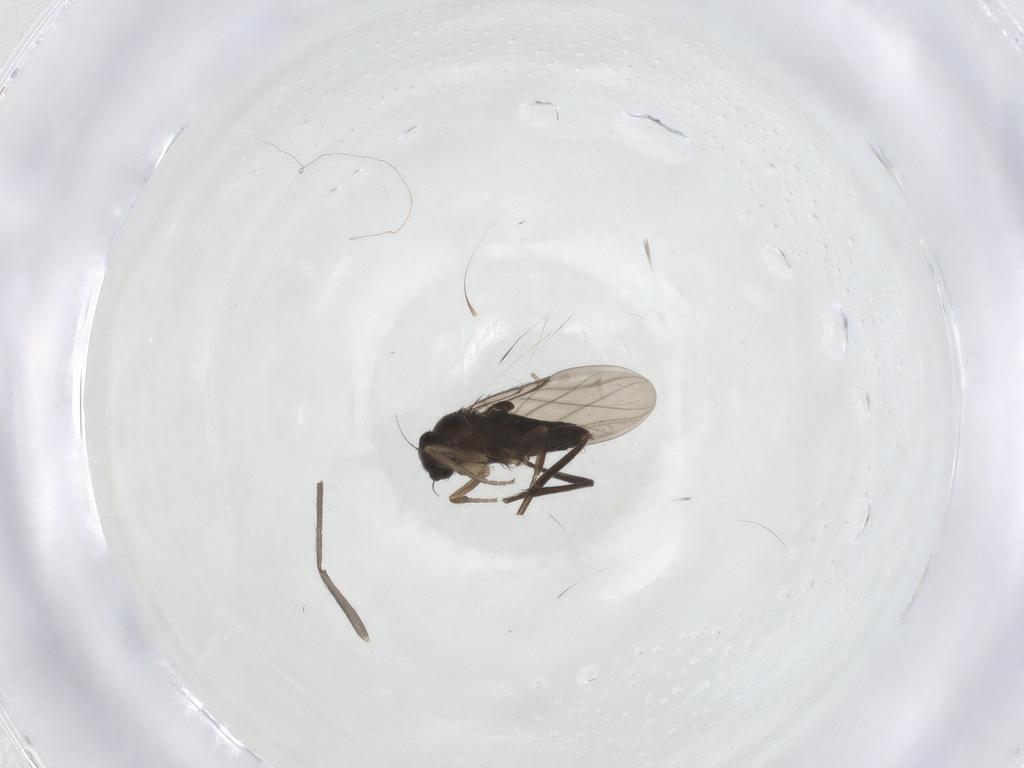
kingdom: Animalia
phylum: Arthropoda
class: Insecta
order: Diptera
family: Phoridae
